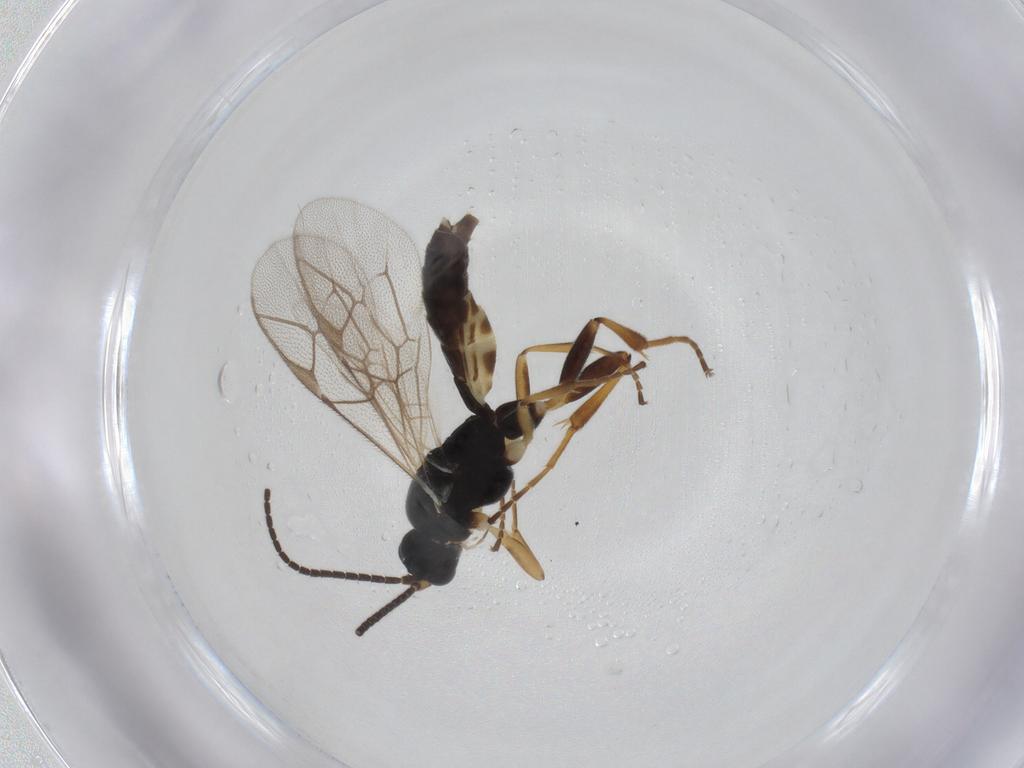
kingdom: Animalia
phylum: Arthropoda
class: Insecta
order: Hymenoptera
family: Ichneumonidae
